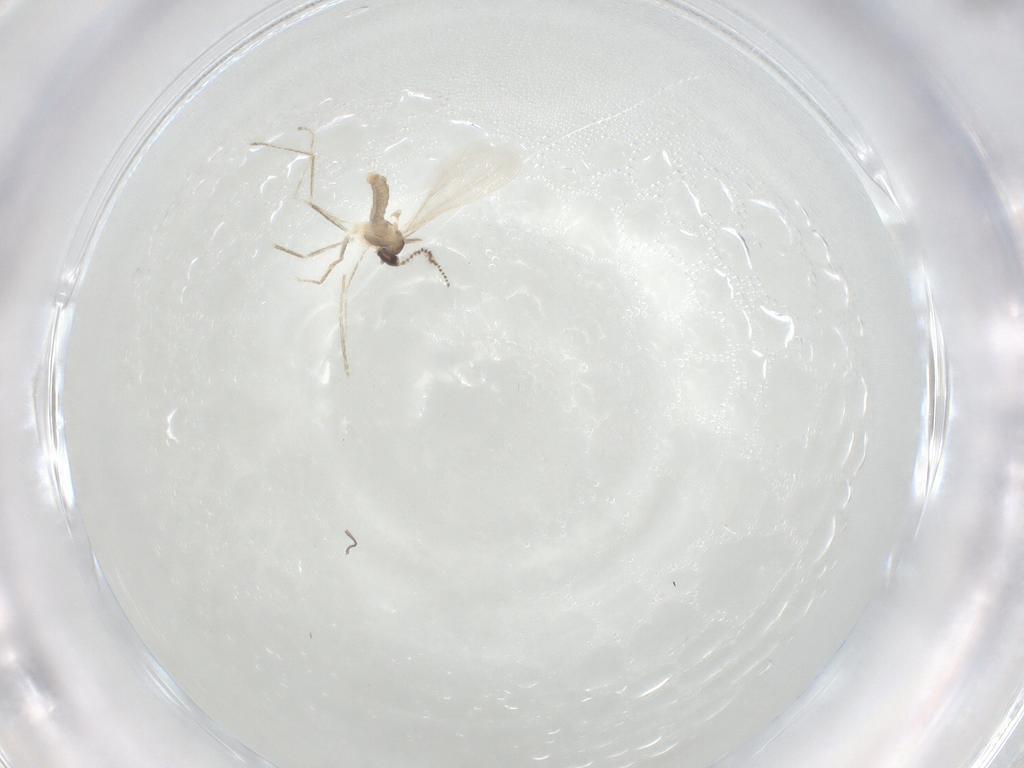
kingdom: Animalia
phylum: Arthropoda
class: Insecta
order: Diptera
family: Cecidomyiidae
